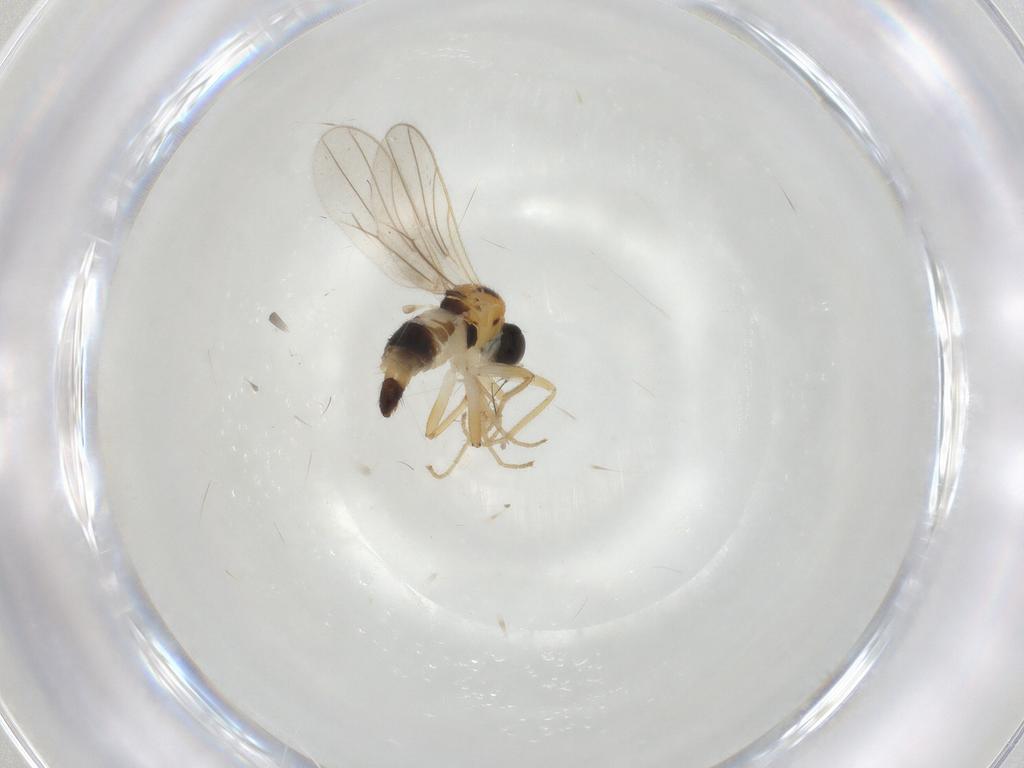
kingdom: Animalia
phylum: Arthropoda
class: Insecta
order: Diptera
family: Hybotidae
